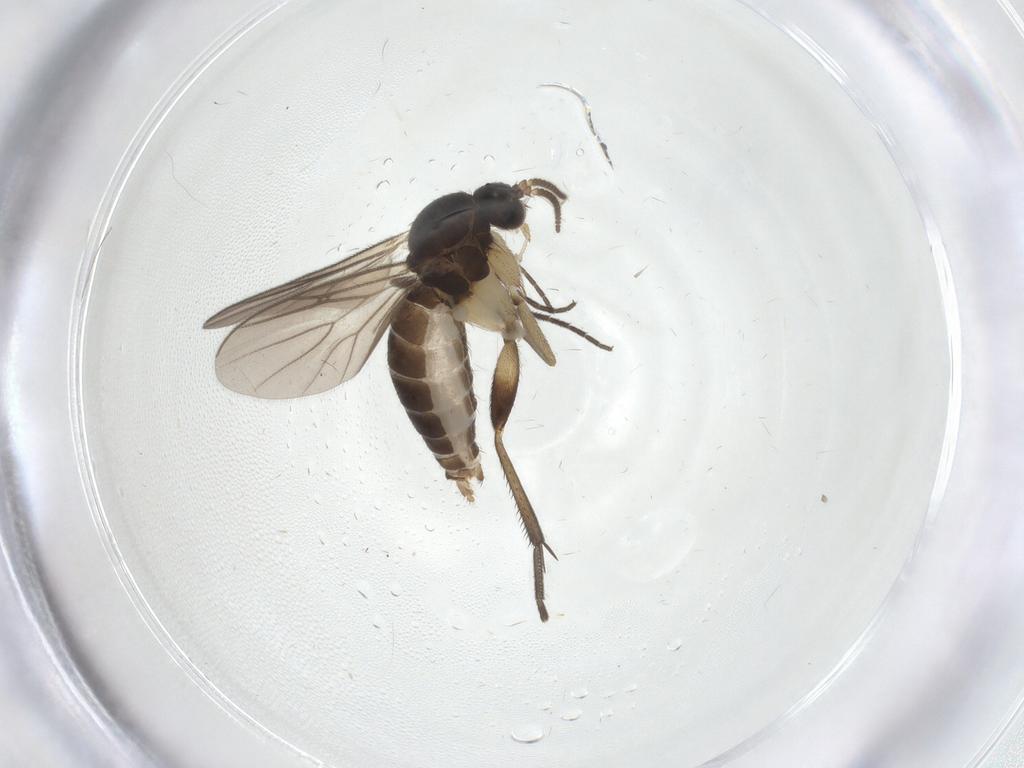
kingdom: Animalia
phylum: Arthropoda
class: Insecta
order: Diptera
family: Mycetophilidae
